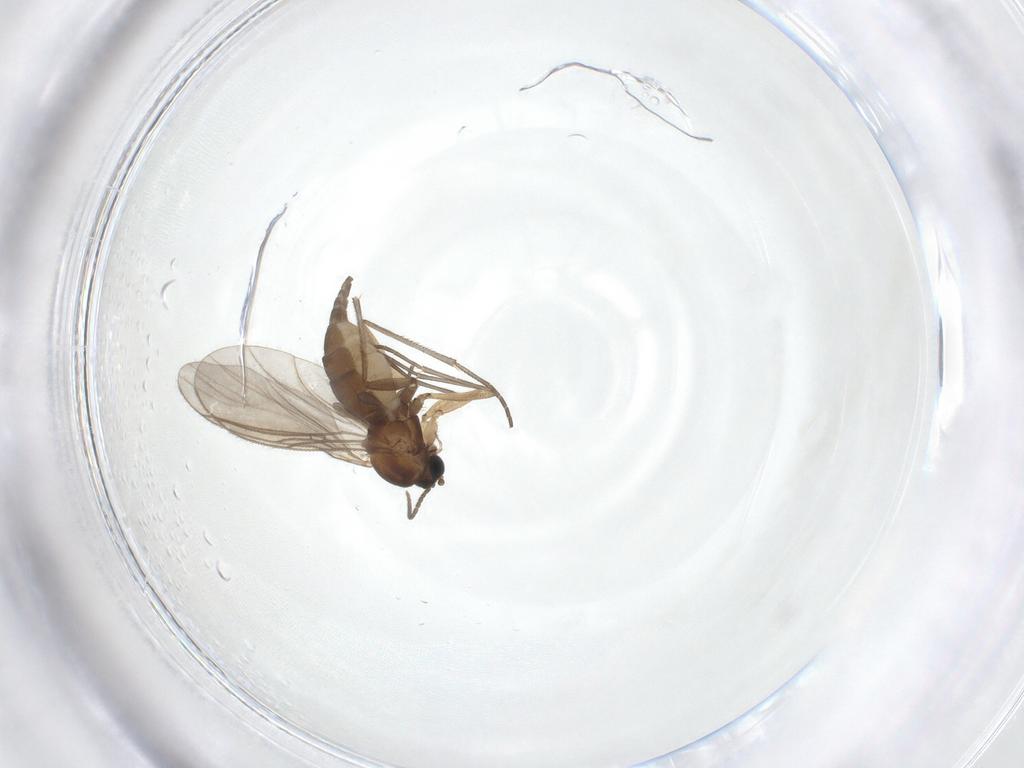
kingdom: Animalia
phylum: Arthropoda
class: Insecta
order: Diptera
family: Sciaridae
